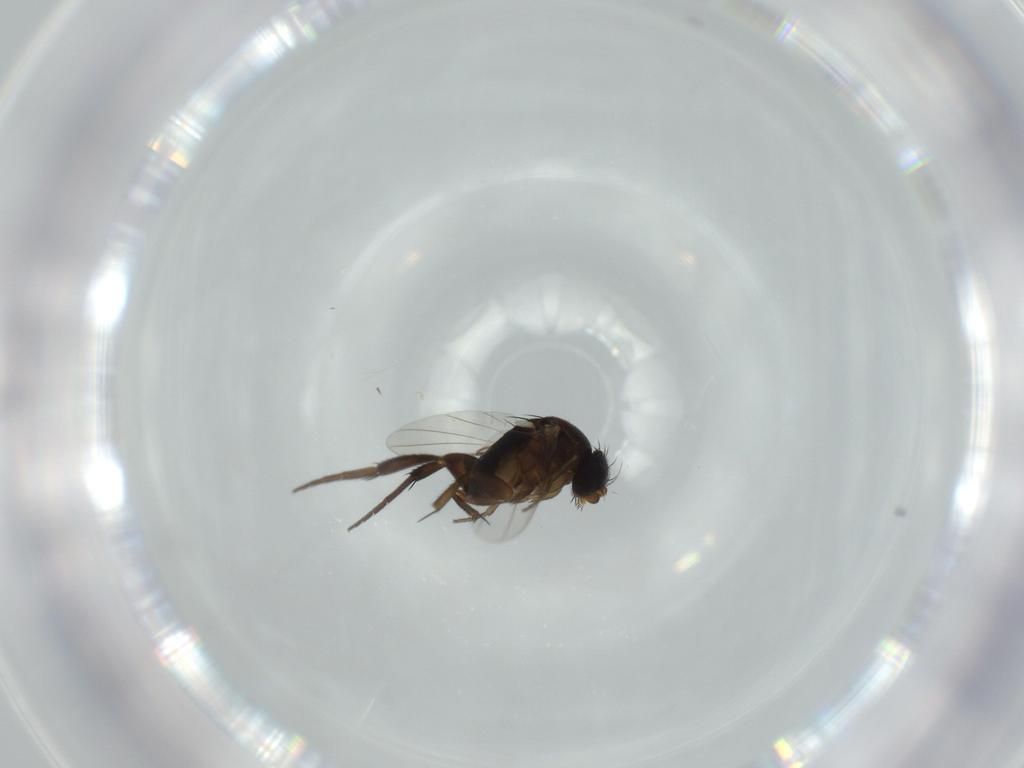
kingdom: Animalia
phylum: Arthropoda
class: Insecta
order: Diptera
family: Phoridae
